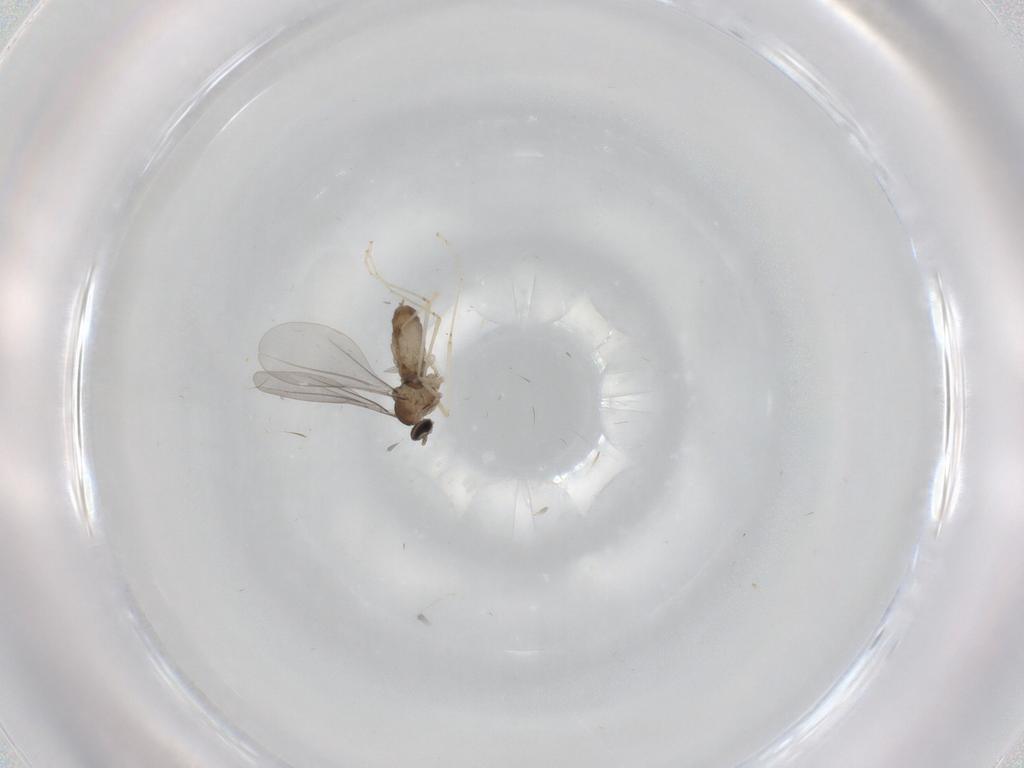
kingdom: Animalia
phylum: Arthropoda
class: Insecta
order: Diptera
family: Cecidomyiidae
